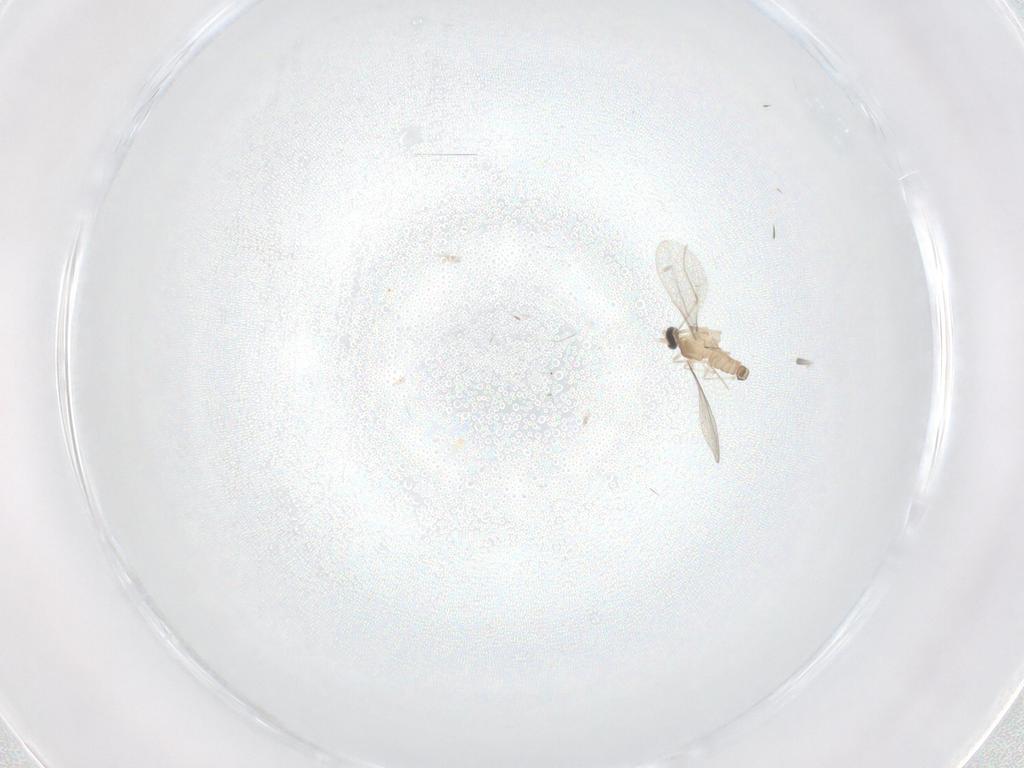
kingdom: Animalia
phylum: Arthropoda
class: Insecta
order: Diptera
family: Cecidomyiidae
